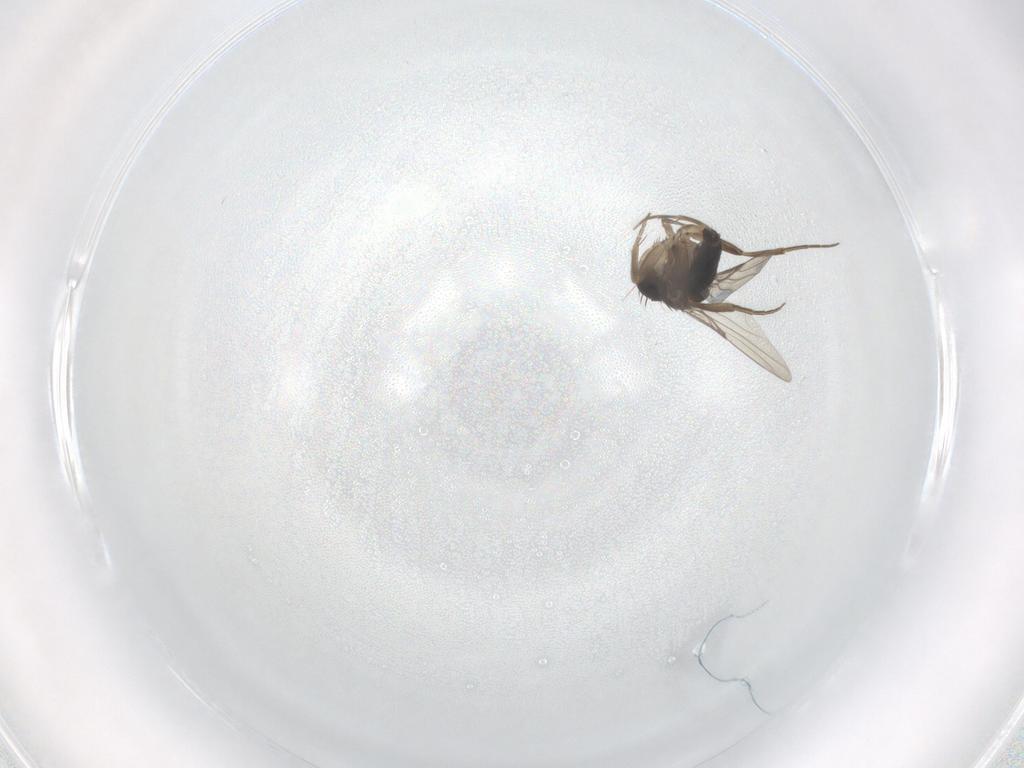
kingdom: Animalia
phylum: Arthropoda
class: Insecta
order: Diptera
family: Phoridae
